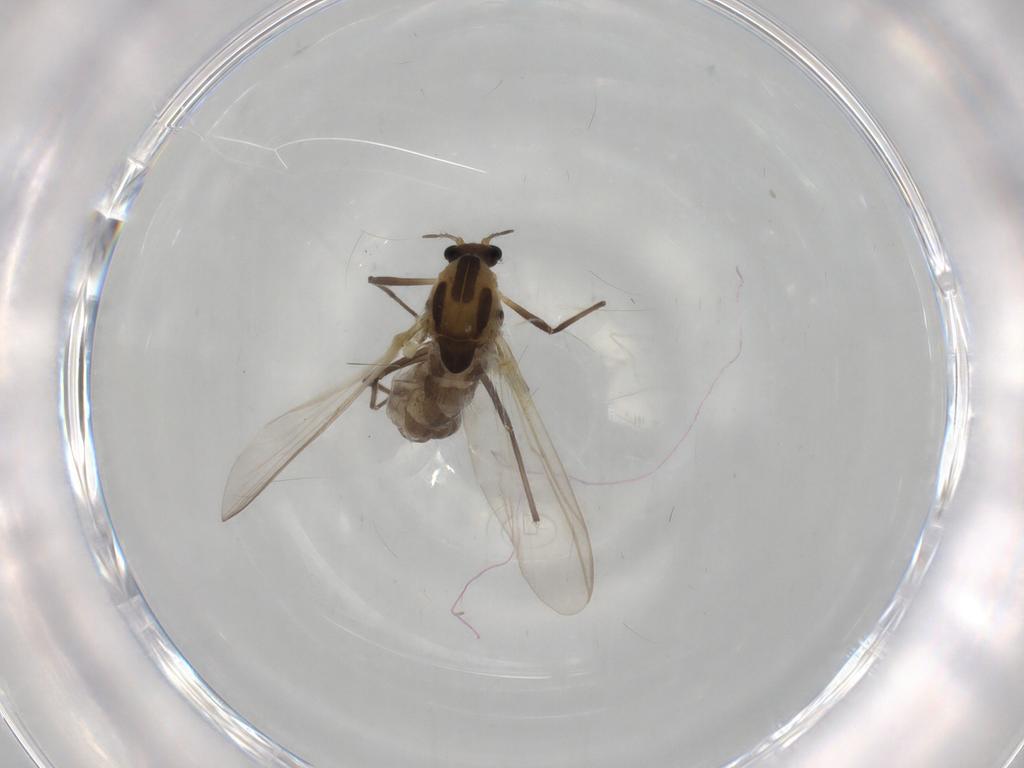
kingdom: Animalia
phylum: Arthropoda
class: Insecta
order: Diptera
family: Chironomidae
